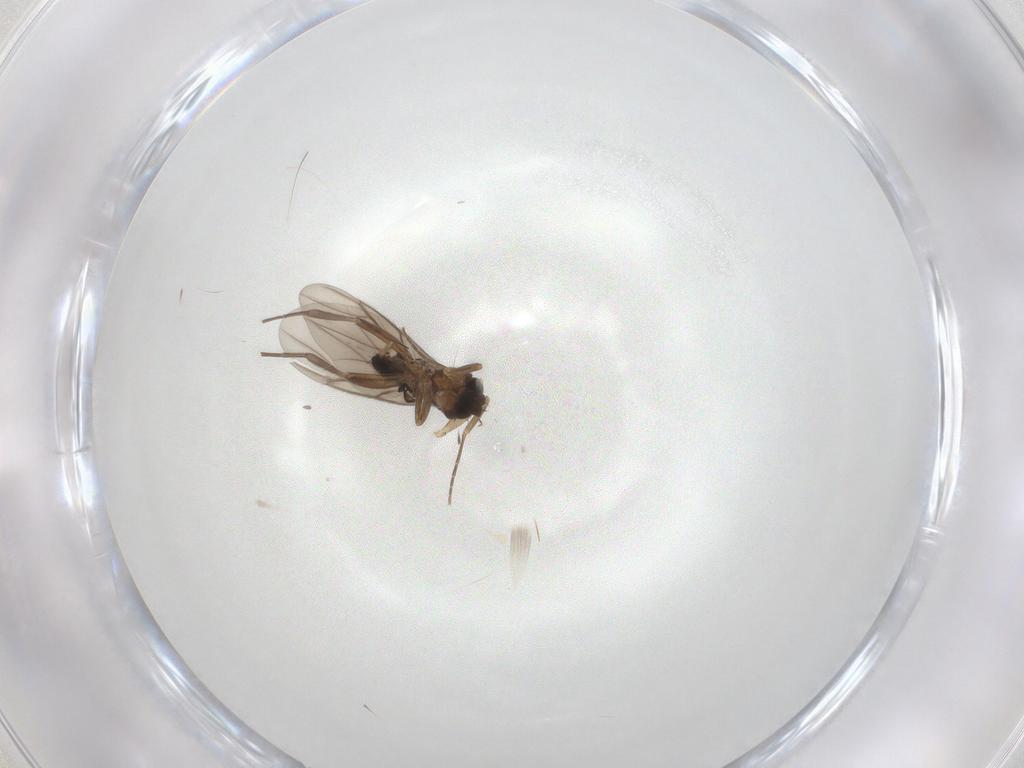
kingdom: Animalia
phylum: Arthropoda
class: Insecta
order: Diptera
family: Phoridae
